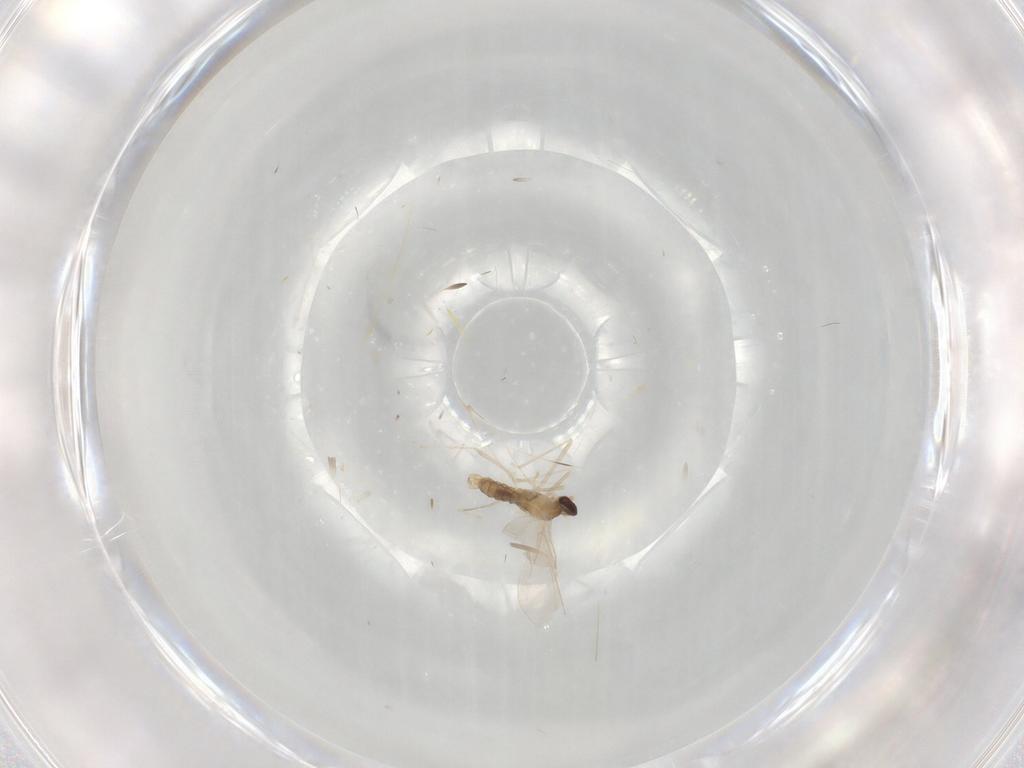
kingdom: Animalia
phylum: Arthropoda
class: Insecta
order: Diptera
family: Cecidomyiidae
